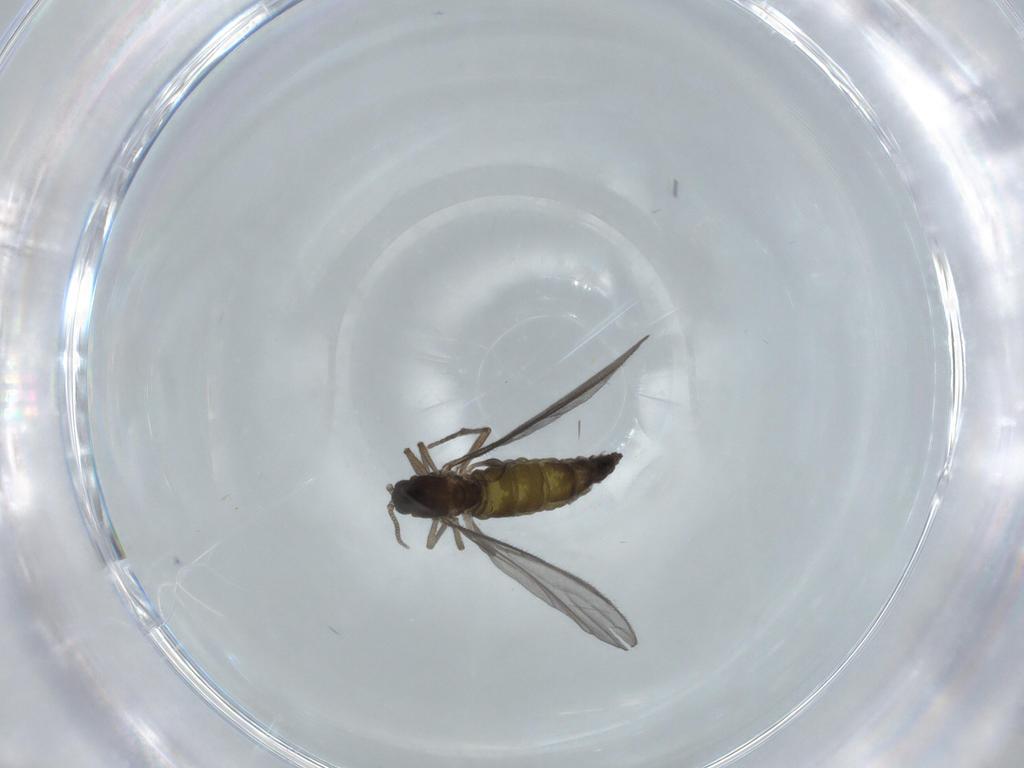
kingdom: Animalia
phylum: Arthropoda
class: Insecta
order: Diptera
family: Sciaridae
